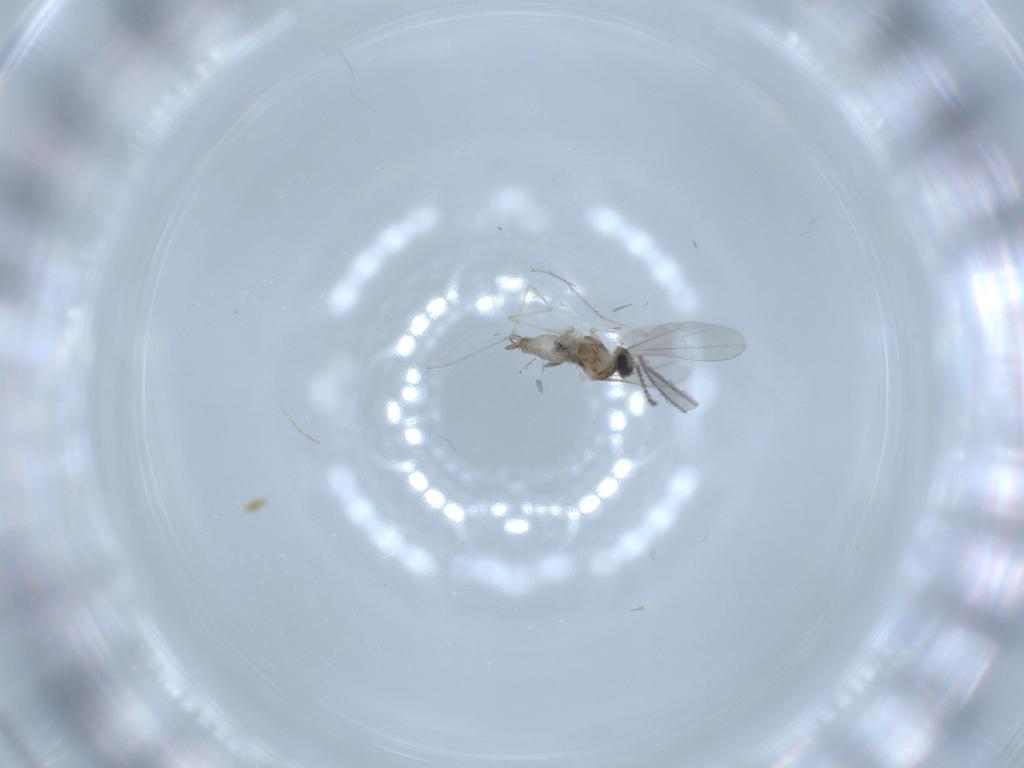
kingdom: Animalia
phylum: Arthropoda
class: Insecta
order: Diptera
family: Cecidomyiidae
